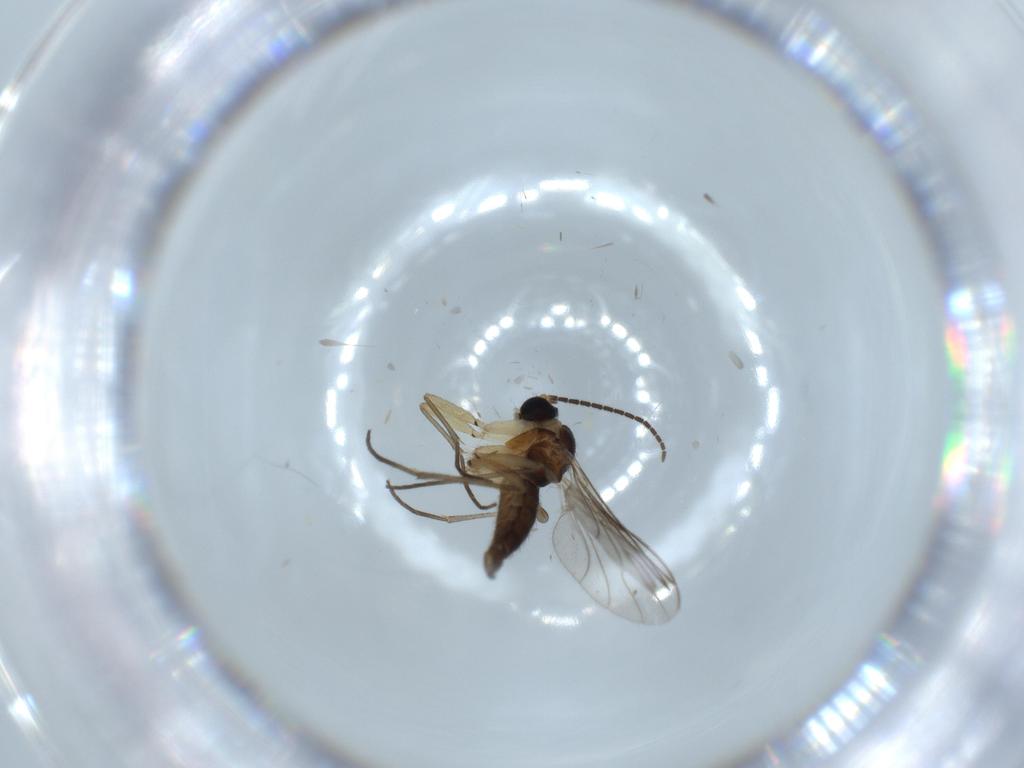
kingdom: Animalia
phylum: Arthropoda
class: Insecta
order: Diptera
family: Sciaridae
